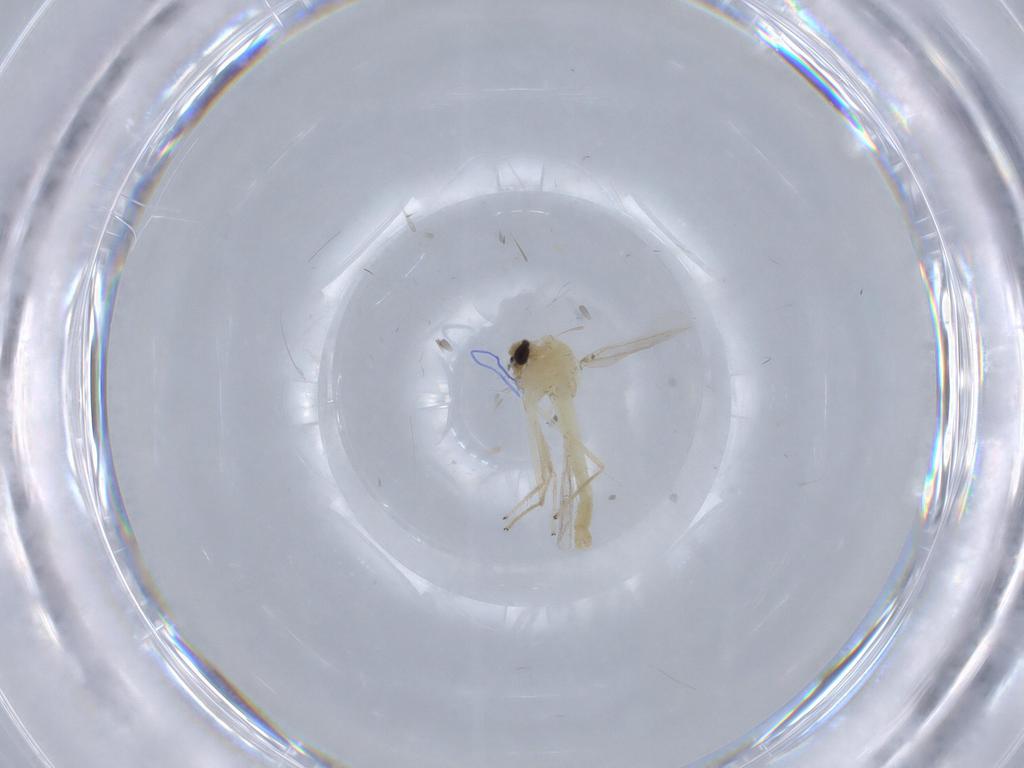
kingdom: Animalia
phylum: Arthropoda
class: Insecta
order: Diptera
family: Chironomidae
